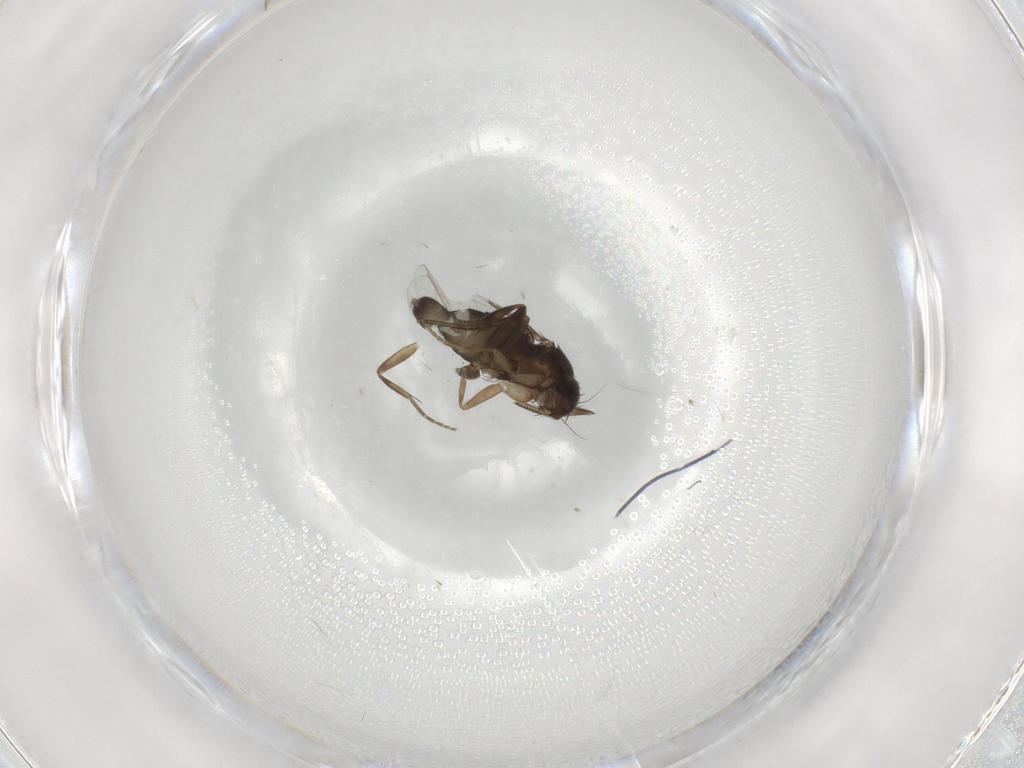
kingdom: Animalia
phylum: Arthropoda
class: Insecta
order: Diptera
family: Phoridae
